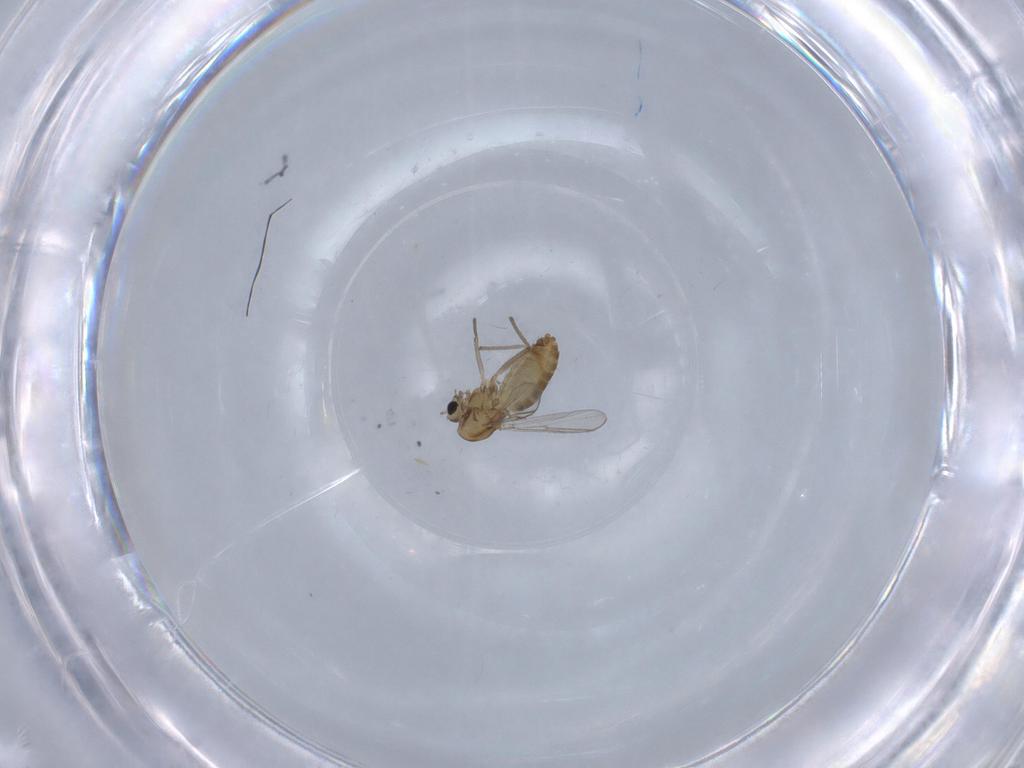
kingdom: Animalia
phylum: Arthropoda
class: Insecta
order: Diptera
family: Chironomidae
